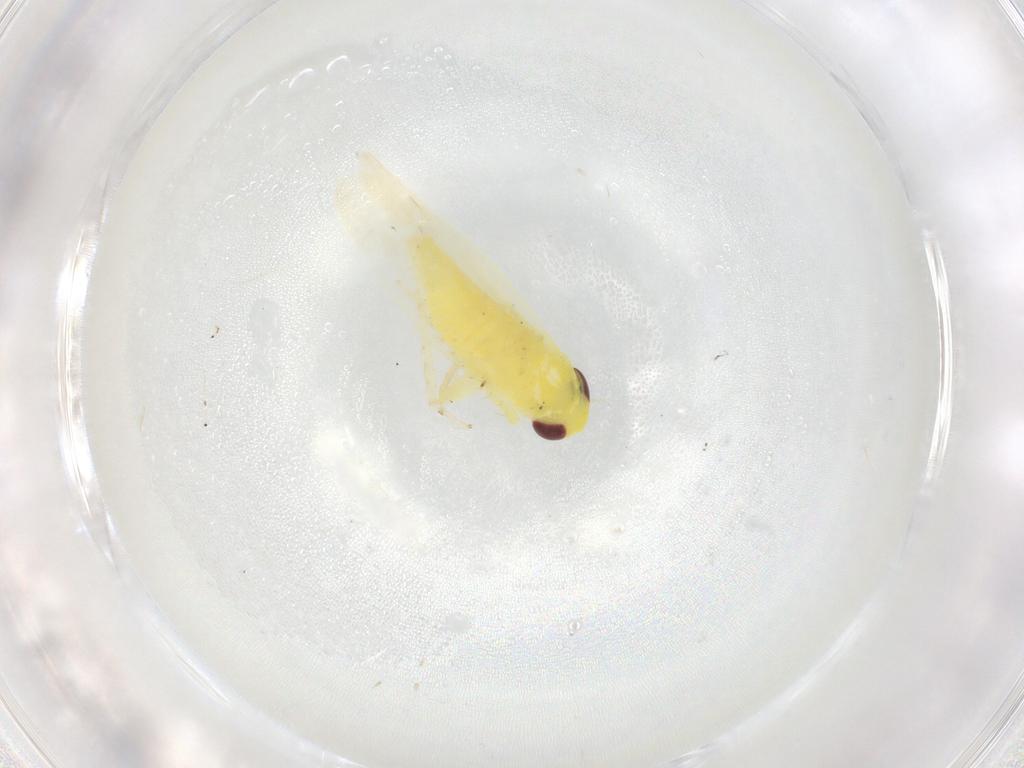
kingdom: Animalia
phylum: Arthropoda
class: Insecta
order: Hemiptera
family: Lygaeidae
